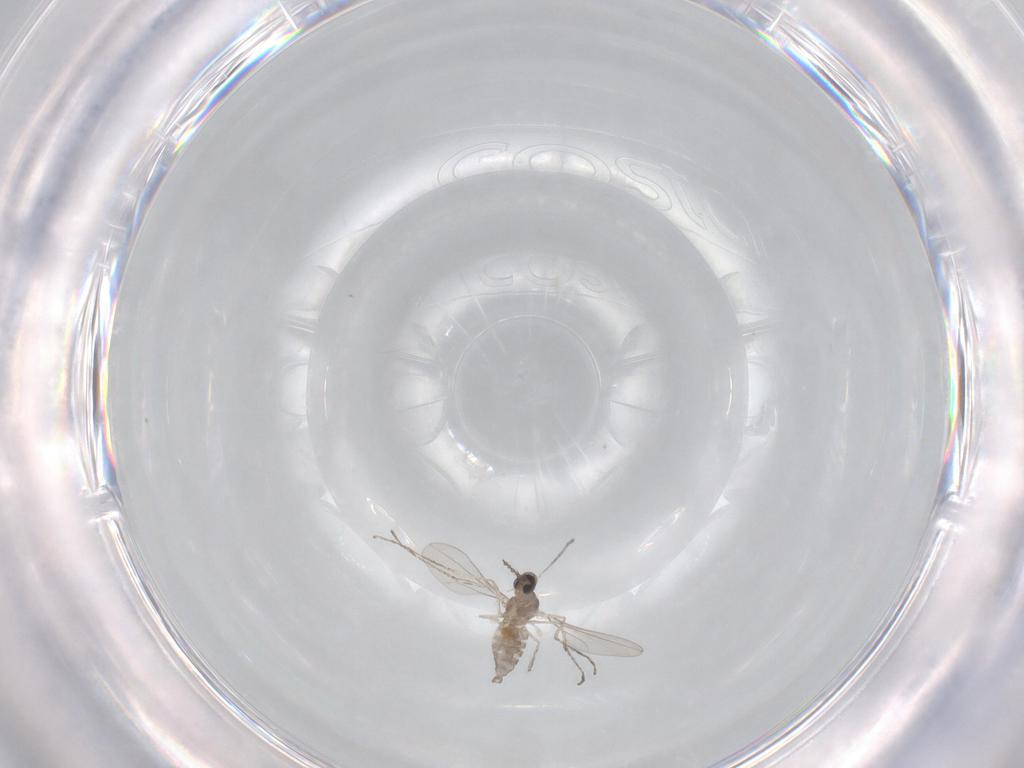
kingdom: Animalia
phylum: Arthropoda
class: Insecta
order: Diptera
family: Cecidomyiidae
